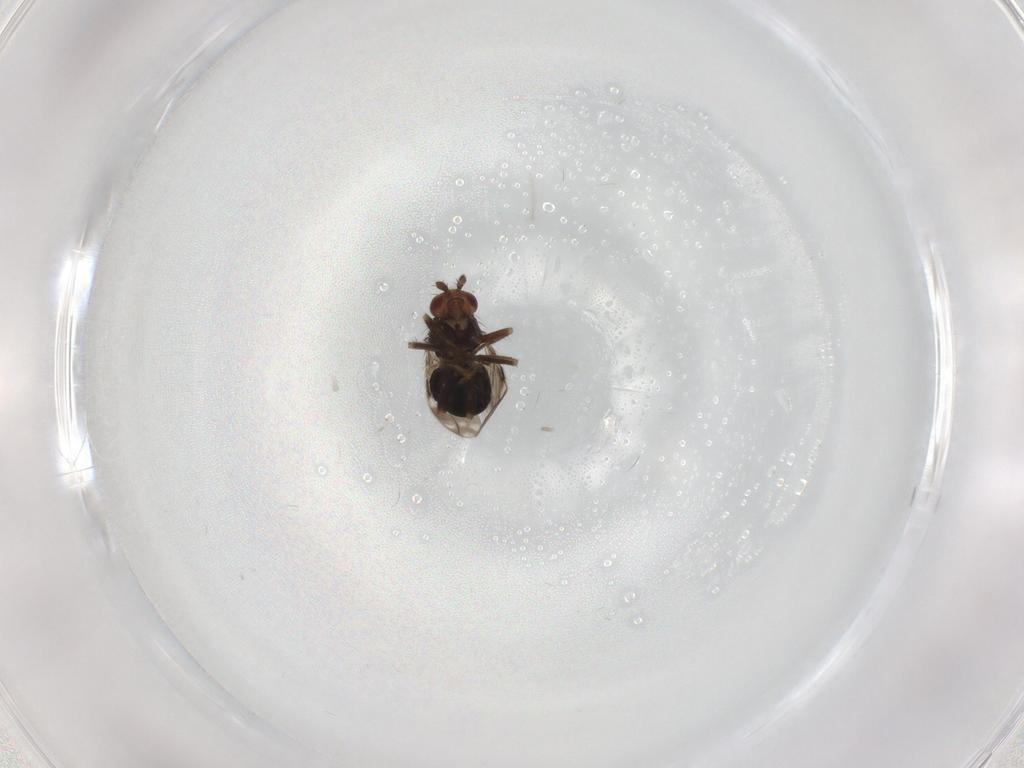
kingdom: Animalia
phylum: Arthropoda
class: Insecta
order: Diptera
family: Sphaeroceridae
